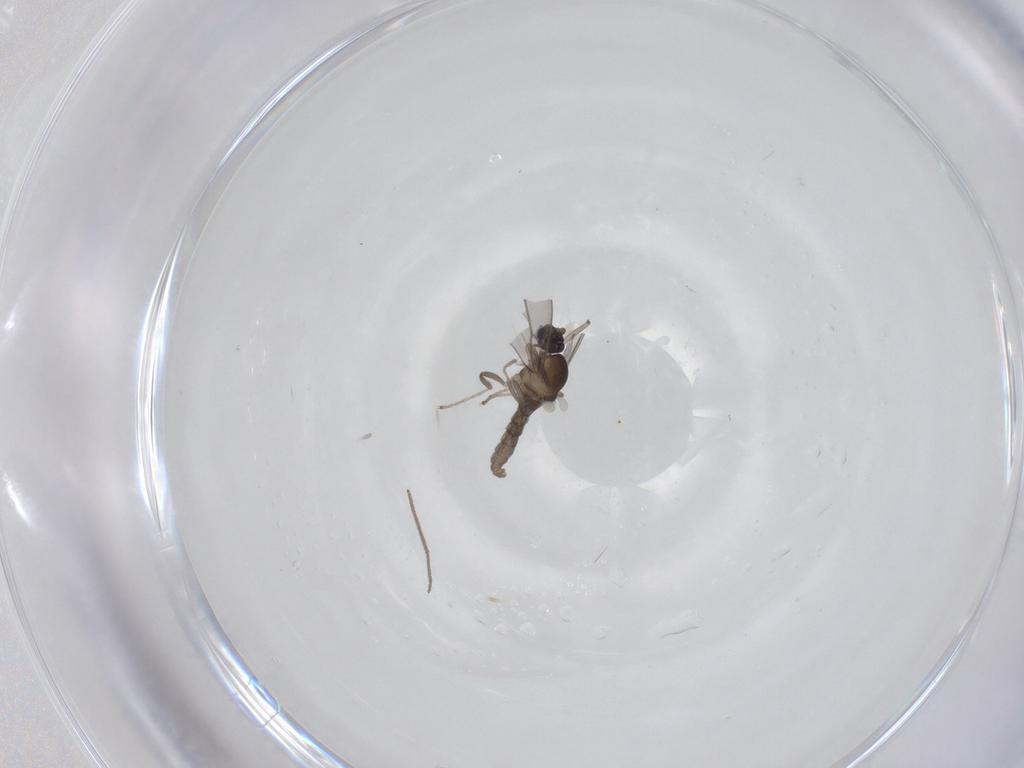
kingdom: Animalia
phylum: Arthropoda
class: Insecta
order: Diptera
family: Cecidomyiidae
